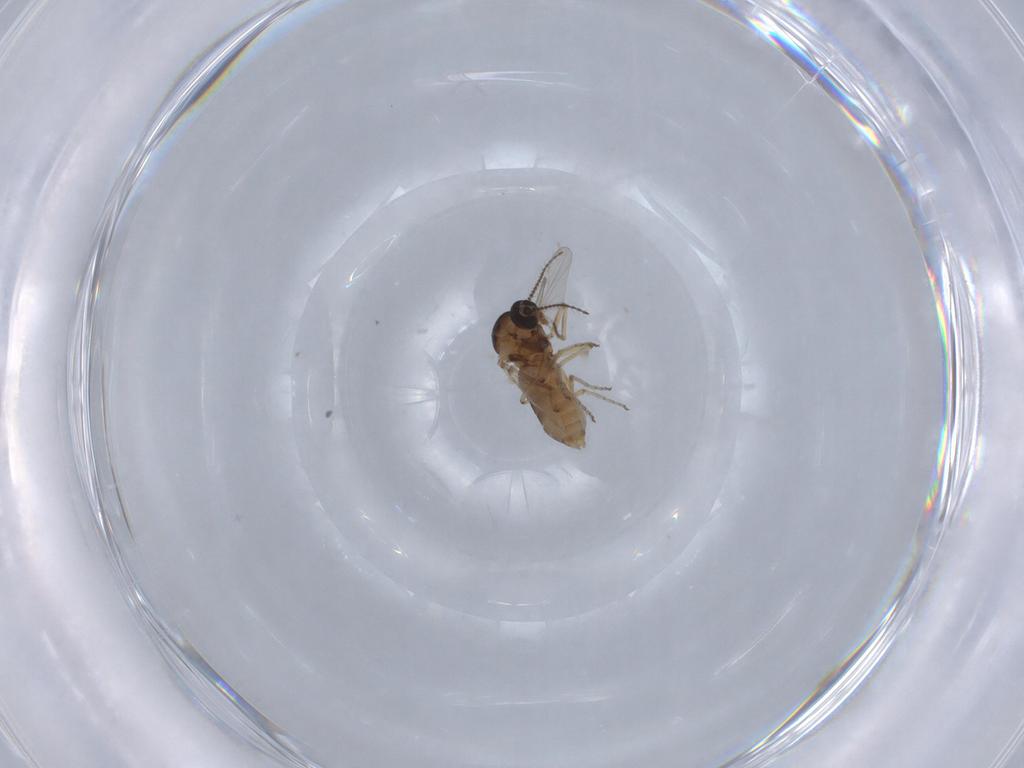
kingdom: Animalia
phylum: Arthropoda
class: Insecta
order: Diptera
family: Ceratopogonidae
